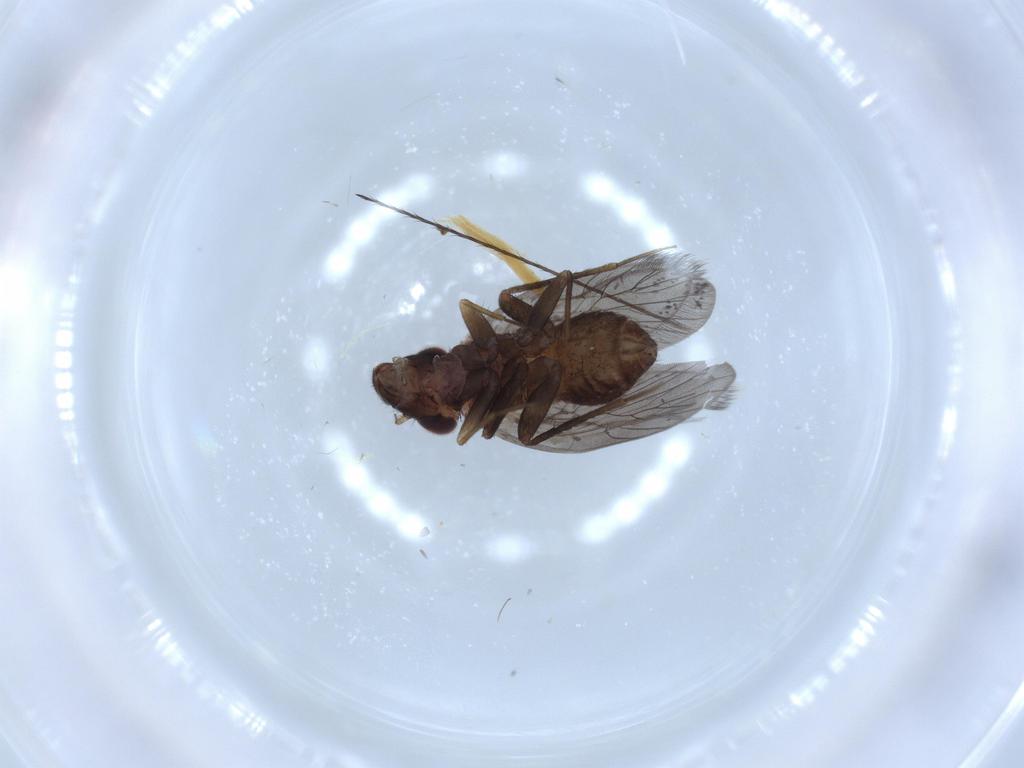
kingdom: Animalia
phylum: Arthropoda
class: Insecta
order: Psocodea
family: Lepidopsocidae
